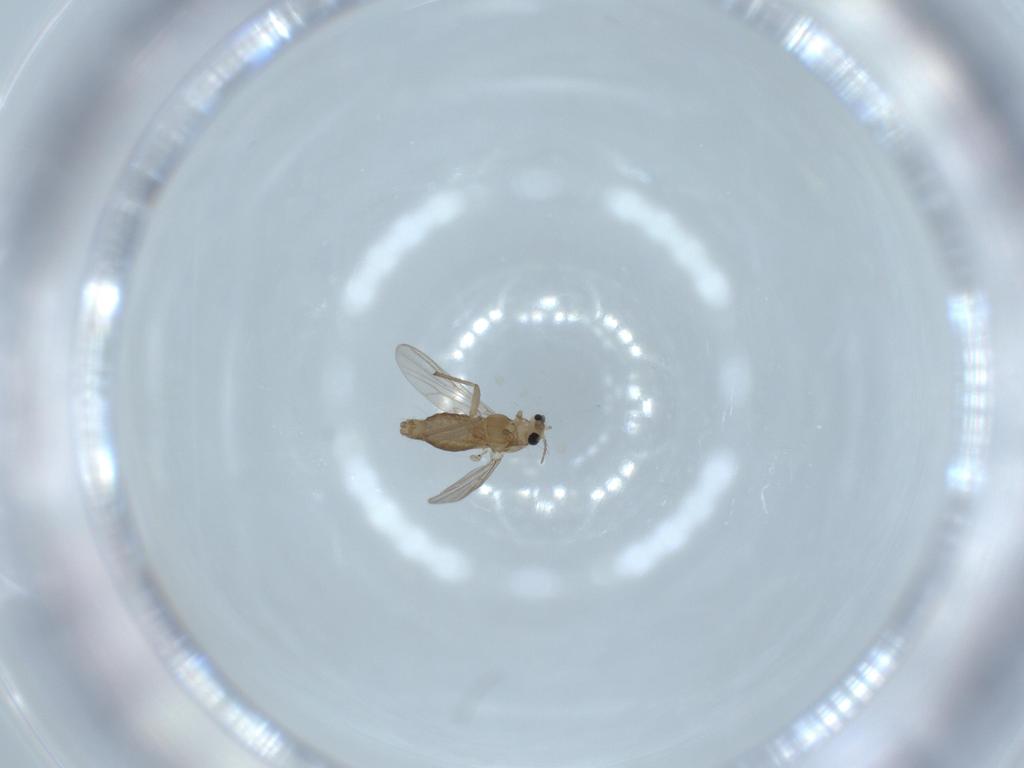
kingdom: Animalia
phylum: Arthropoda
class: Insecta
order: Diptera
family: Chironomidae
